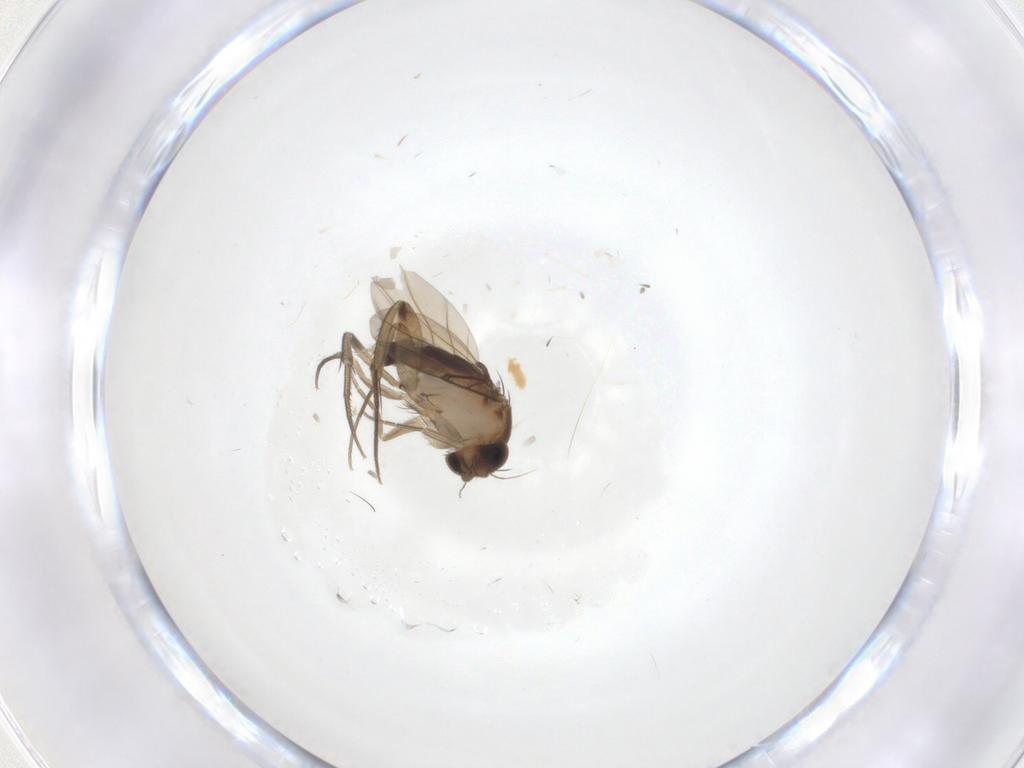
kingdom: Animalia
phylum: Arthropoda
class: Insecta
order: Diptera
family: Phoridae
